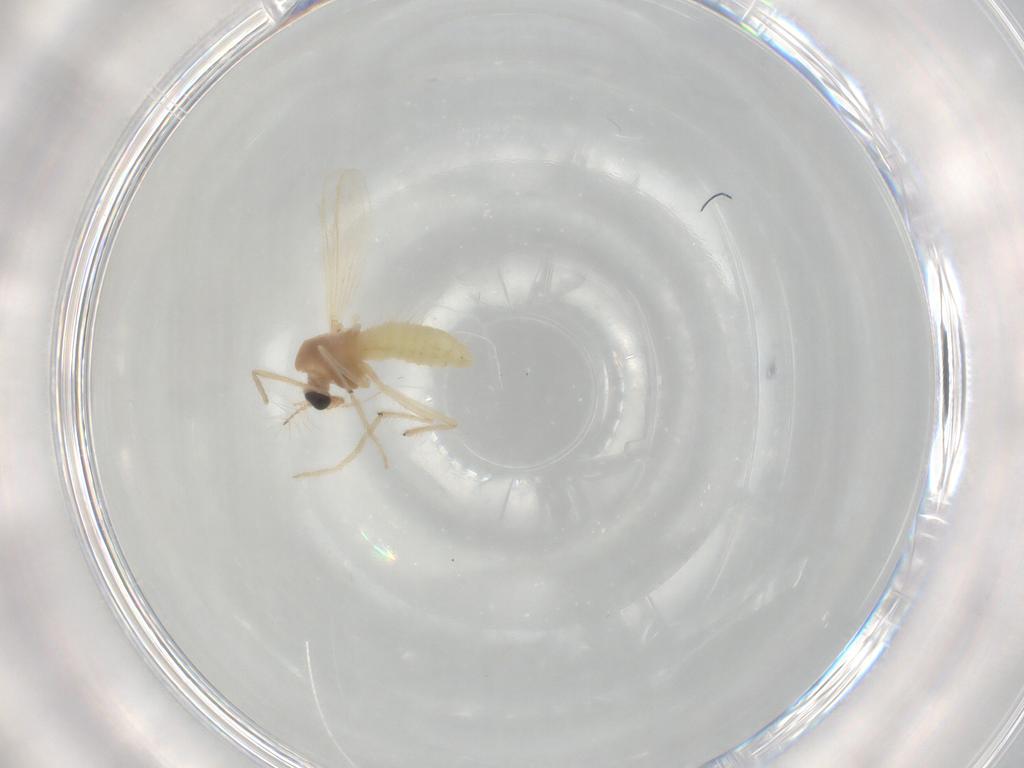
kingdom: Animalia
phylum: Arthropoda
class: Insecta
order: Diptera
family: Chironomidae
